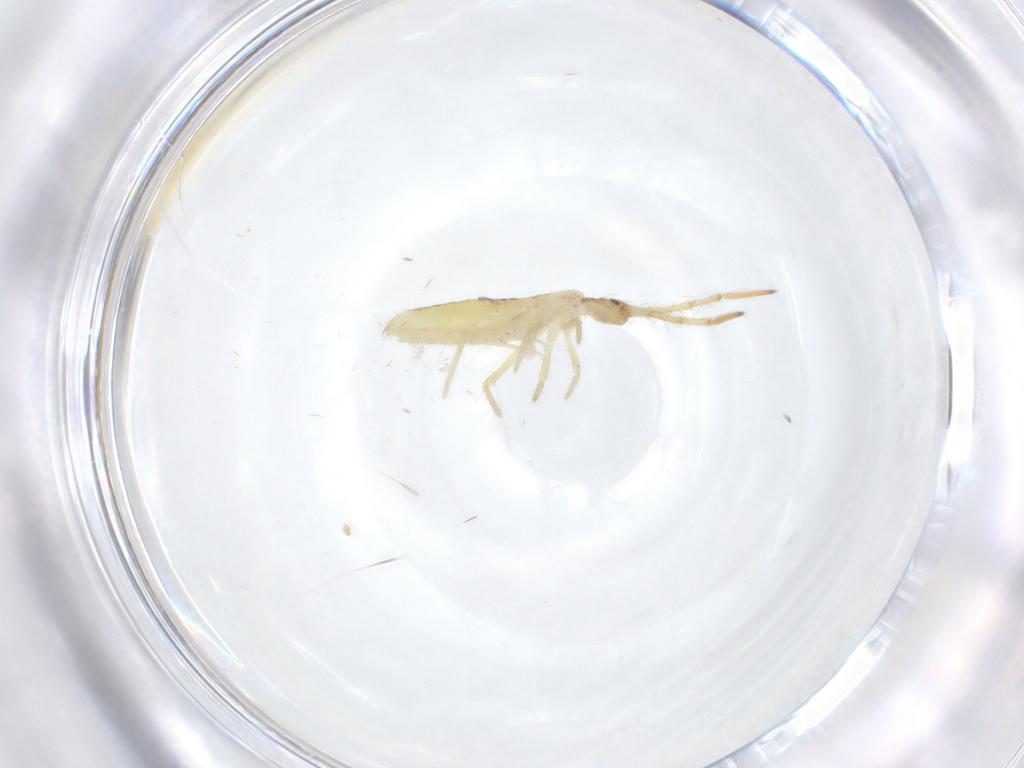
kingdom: Animalia
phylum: Arthropoda
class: Collembola
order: Entomobryomorpha
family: Entomobryidae
